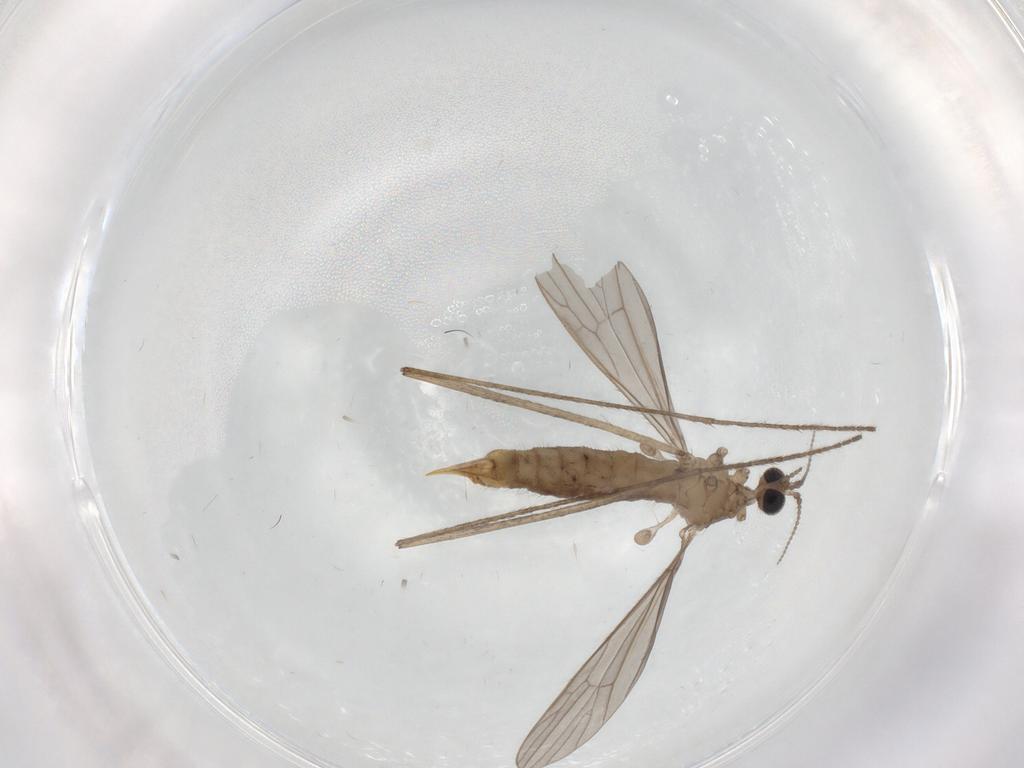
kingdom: Animalia
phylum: Arthropoda
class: Insecta
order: Diptera
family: Limoniidae
